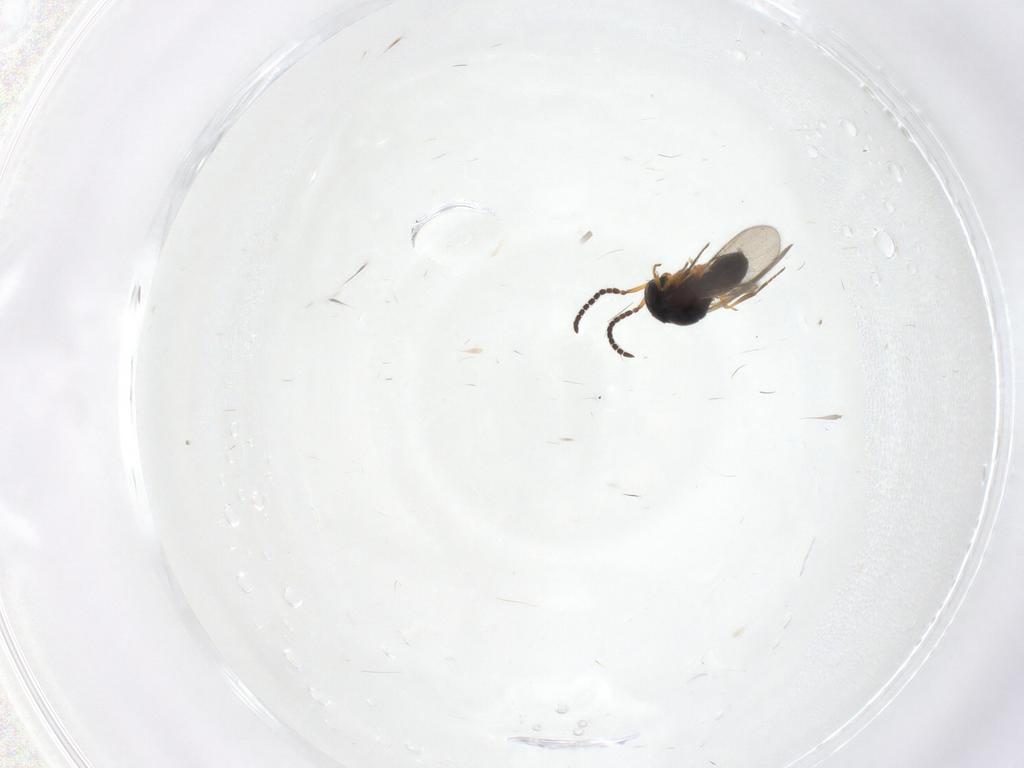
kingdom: Animalia
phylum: Arthropoda
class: Insecta
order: Hymenoptera
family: Scelionidae
